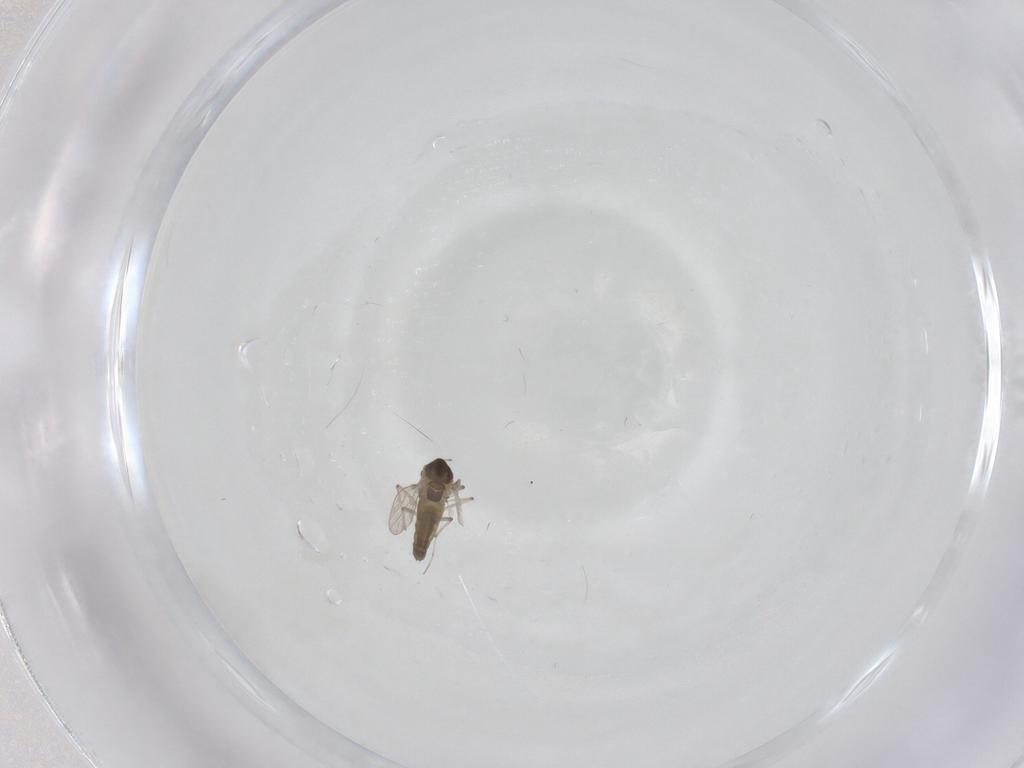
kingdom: Animalia
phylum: Arthropoda
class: Insecta
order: Diptera
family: Chironomidae
